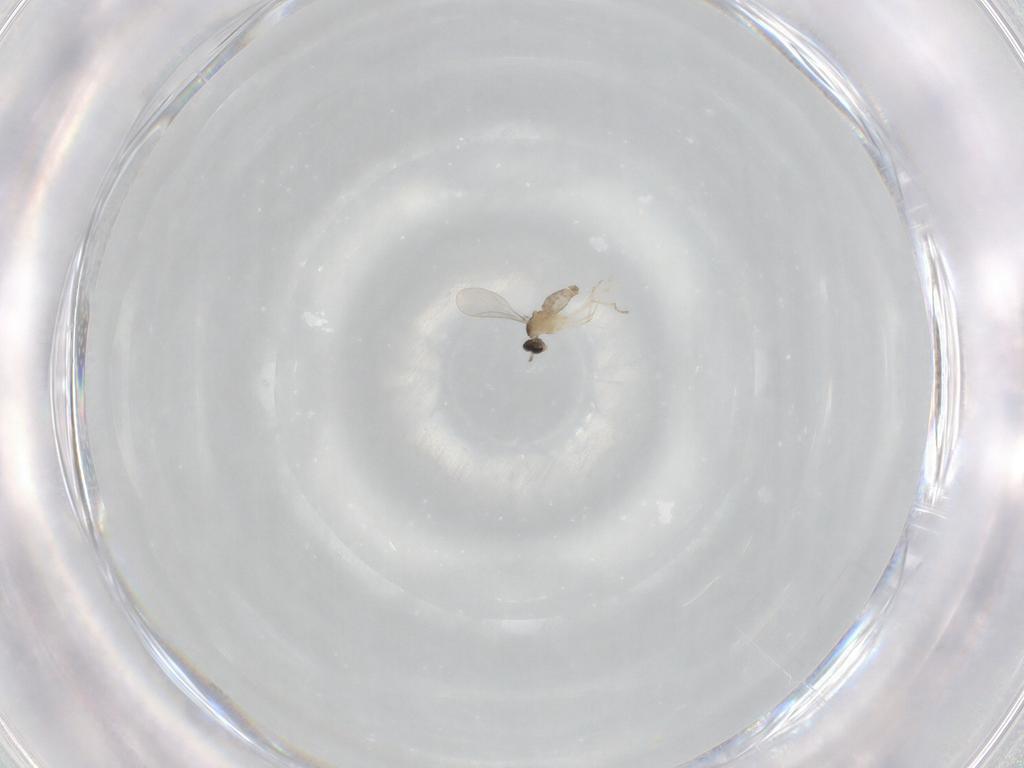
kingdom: Animalia
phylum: Arthropoda
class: Insecta
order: Diptera
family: Cecidomyiidae
